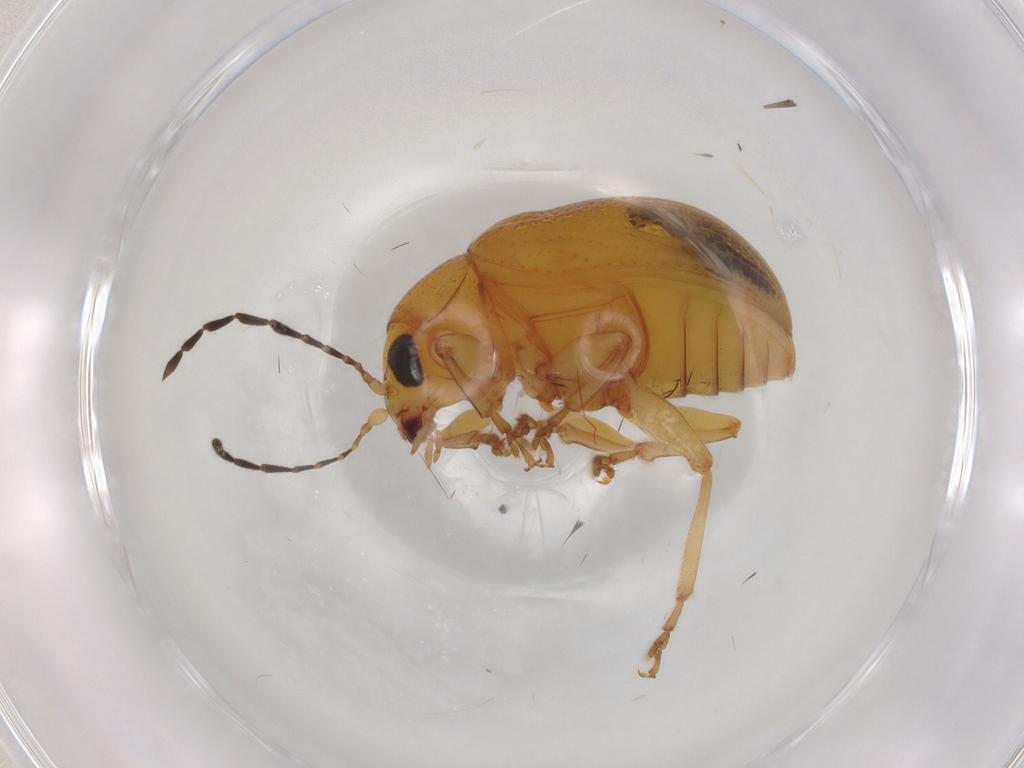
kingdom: Animalia
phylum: Arthropoda
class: Insecta
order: Coleoptera
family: Chrysomelidae
